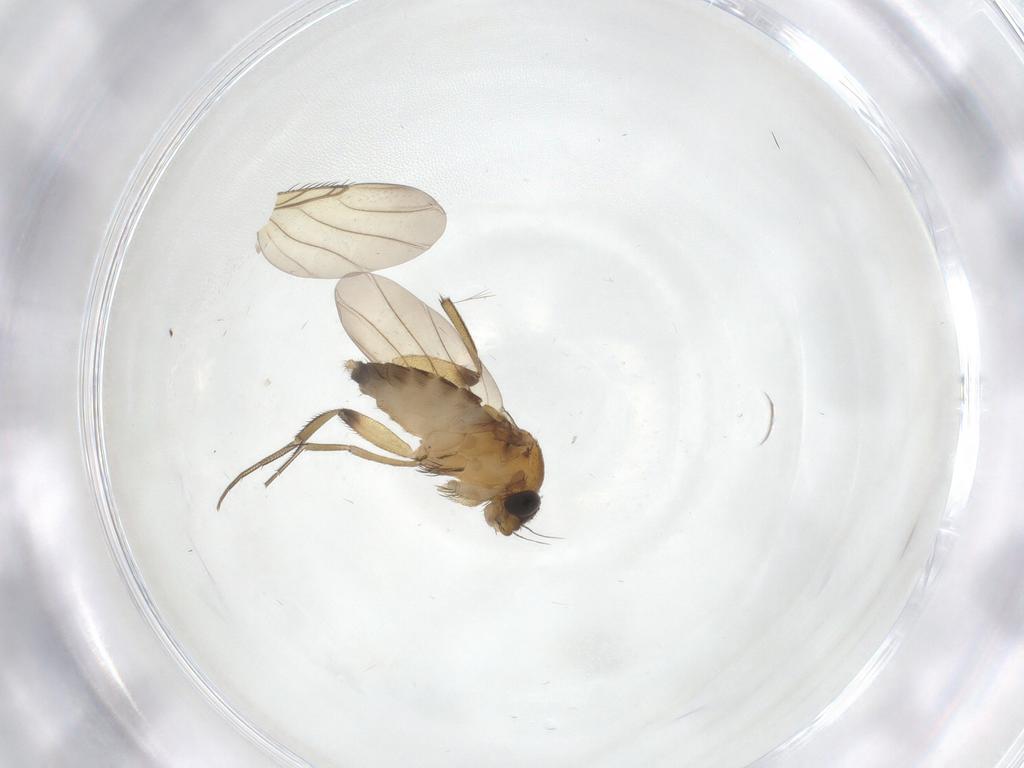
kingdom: Animalia
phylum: Arthropoda
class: Insecta
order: Diptera
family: Phoridae
